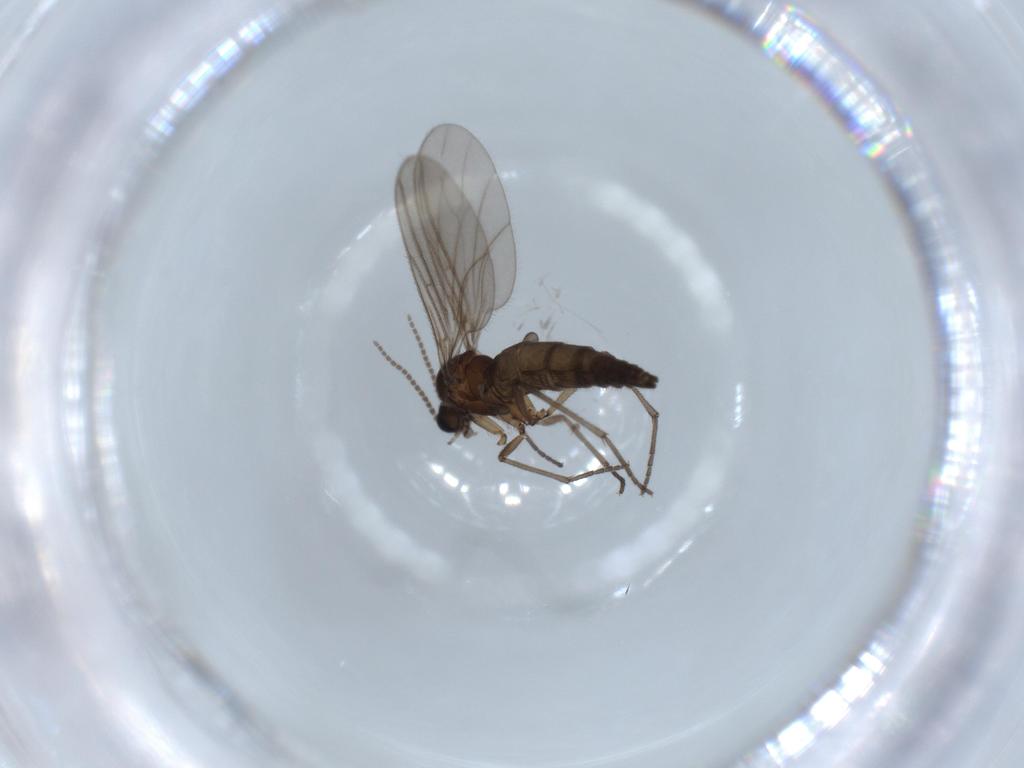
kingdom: Animalia
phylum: Arthropoda
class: Insecta
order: Diptera
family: Sciaridae
